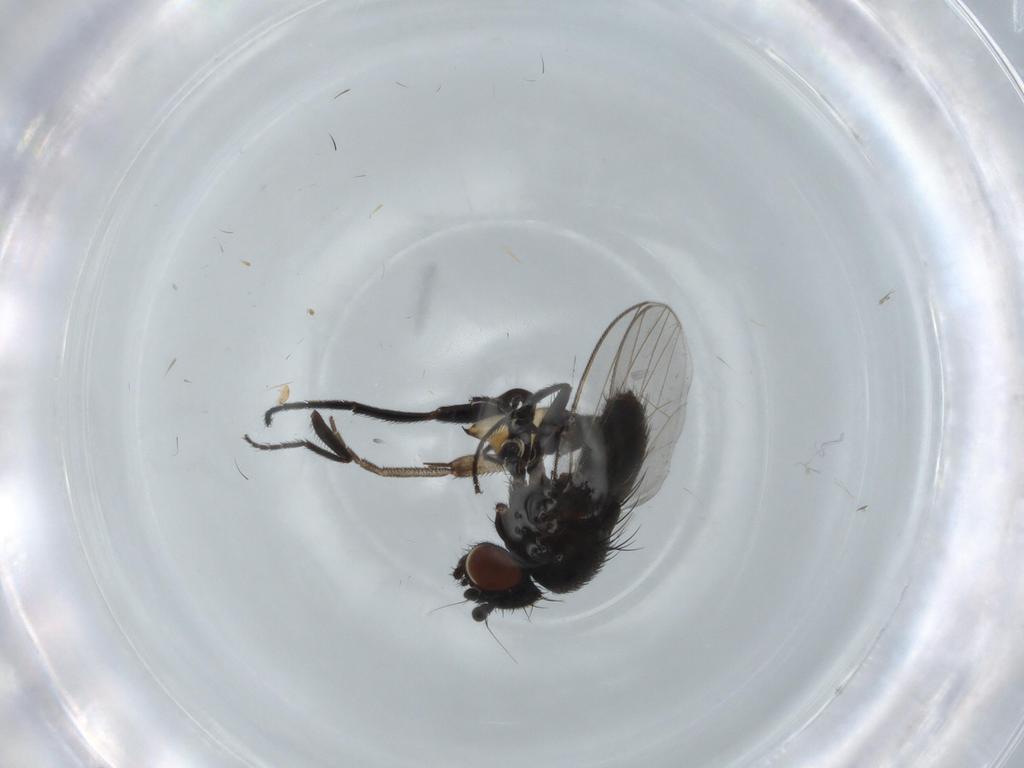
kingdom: Animalia
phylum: Arthropoda
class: Insecta
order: Diptera
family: Milichiidae
